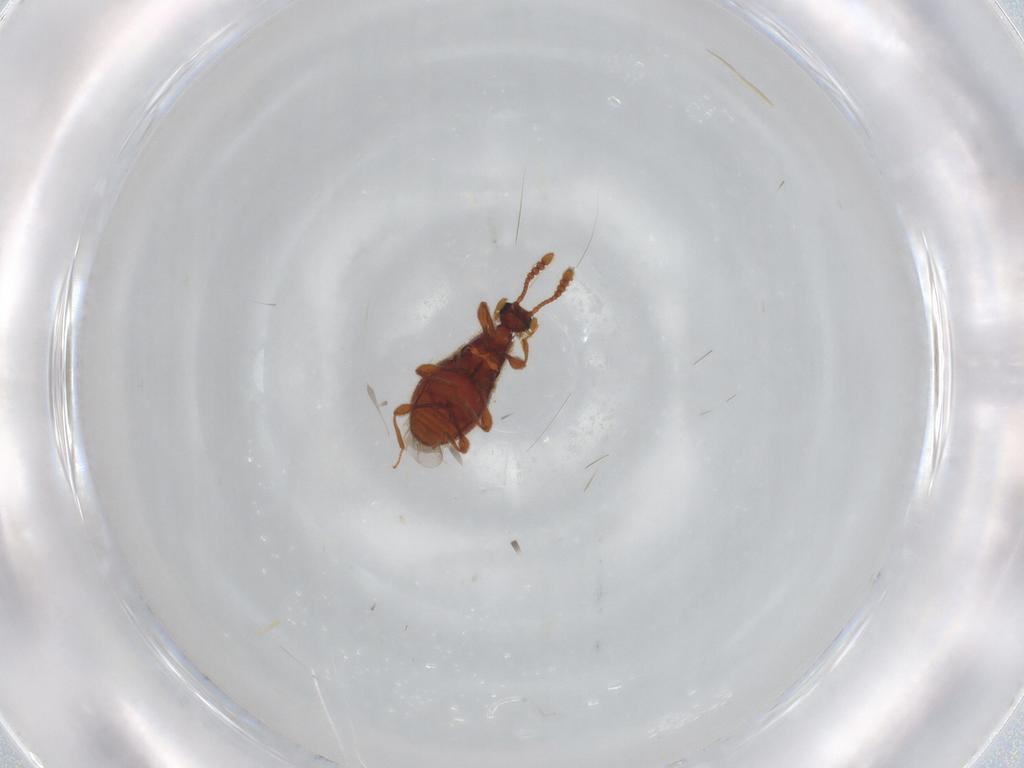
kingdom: Animalia
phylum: Arthropoda
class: Insecta
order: Coleoptera
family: Staphylinidae
